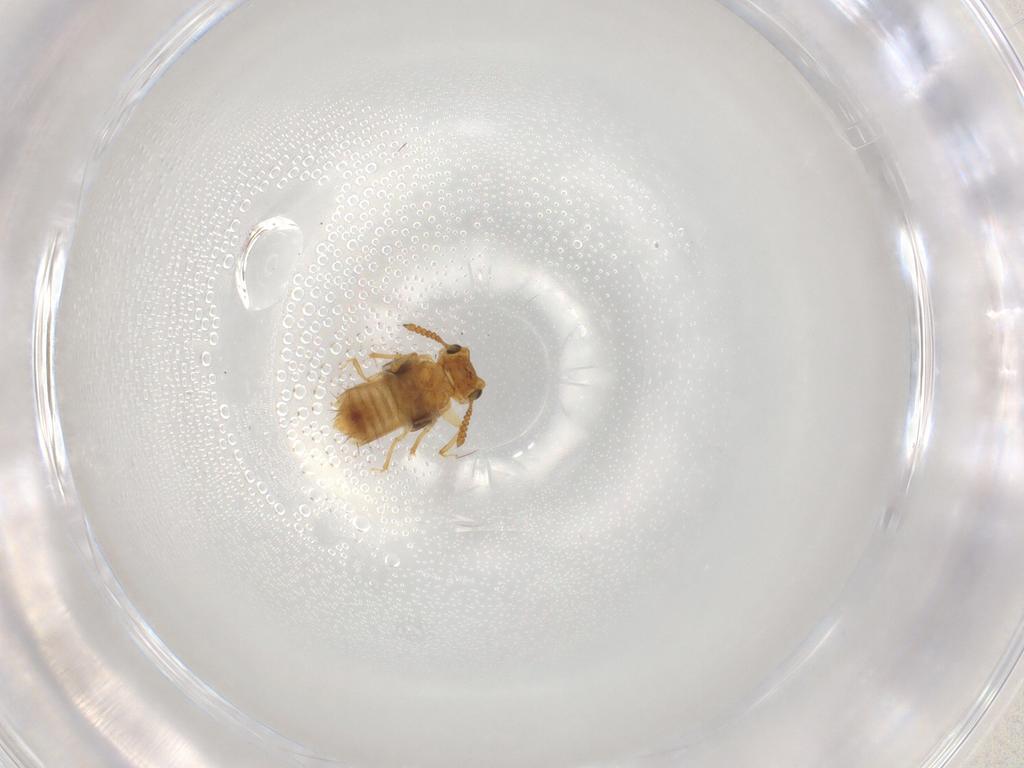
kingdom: Animalia
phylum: Arthropoda
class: Insecta
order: Coleoptera
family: Staphylinidae
